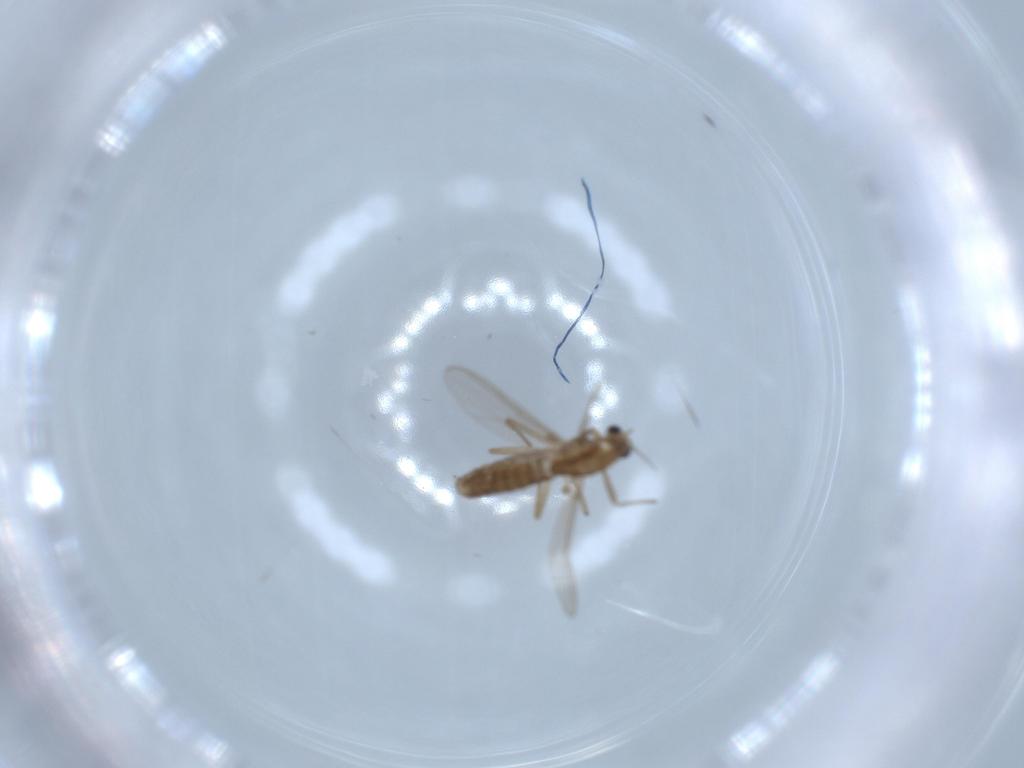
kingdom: Animalia
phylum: Arthropoda
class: Insecta
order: Diptera
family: Chironomidae
